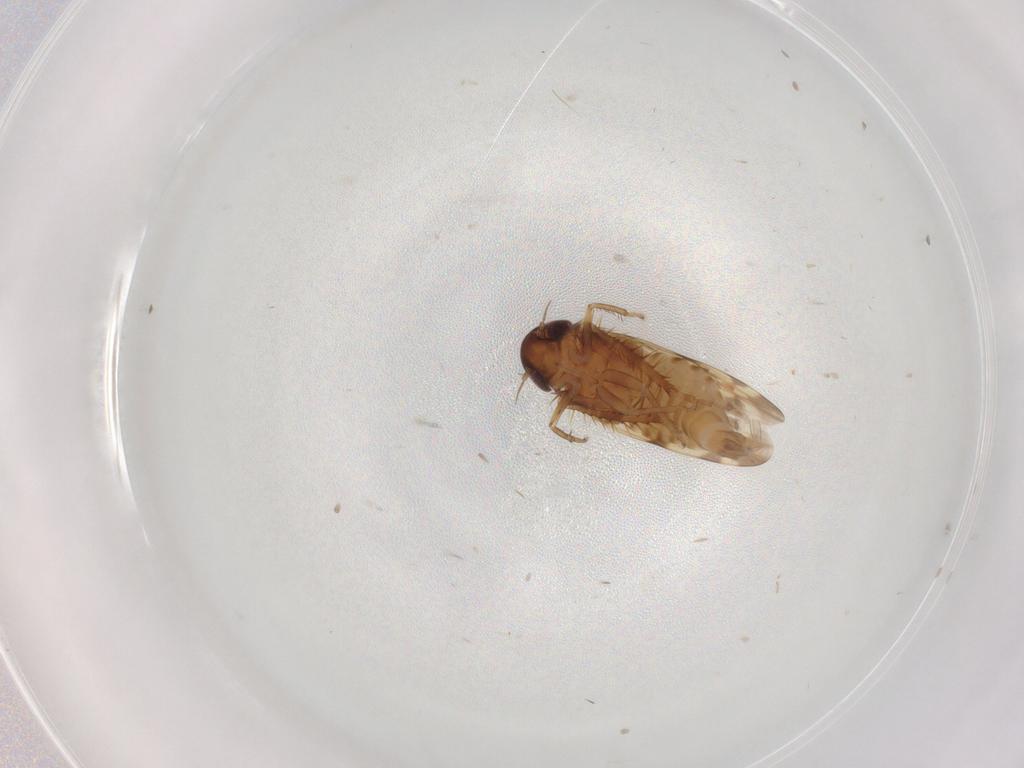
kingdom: Animalia
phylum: Arthropoda
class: Insecta
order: Hemiptera
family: Cicadellidae
